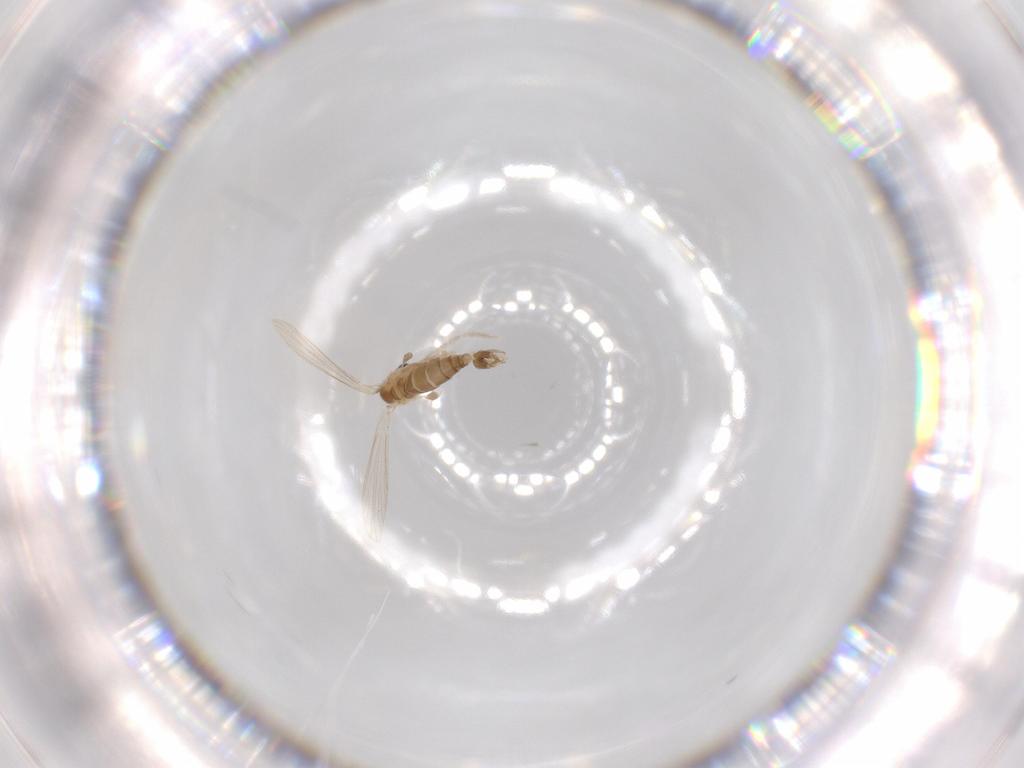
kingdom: Animalia
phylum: Arthropoda
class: Insecta
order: Diptera
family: Psychodidae
